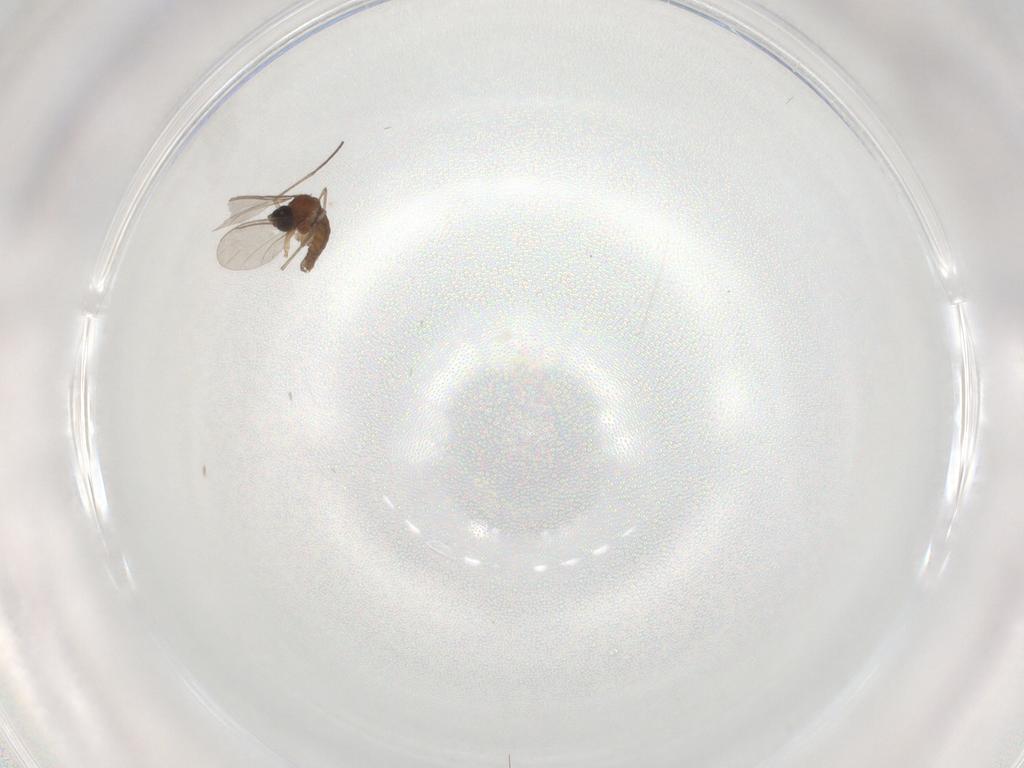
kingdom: Animalia
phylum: Arthropoda
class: Insecta
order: Diptera
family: Sciaridae
